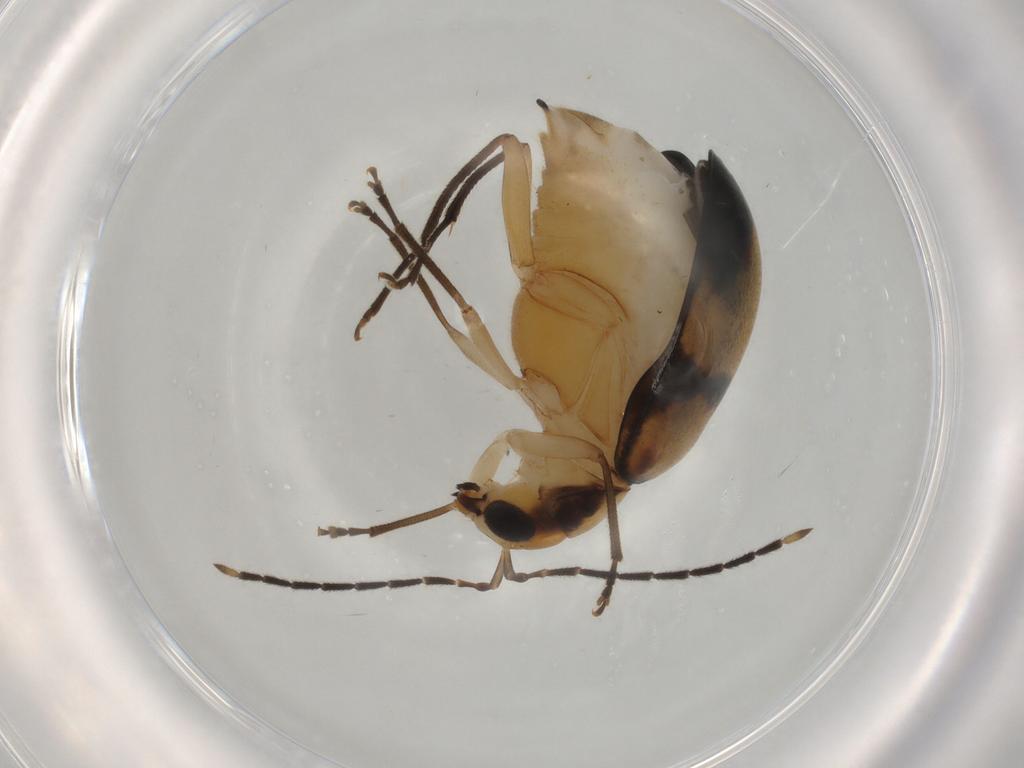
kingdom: Animalia
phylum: Arthropoda
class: Insecta
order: Coleoptera
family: Chrysomelidae
